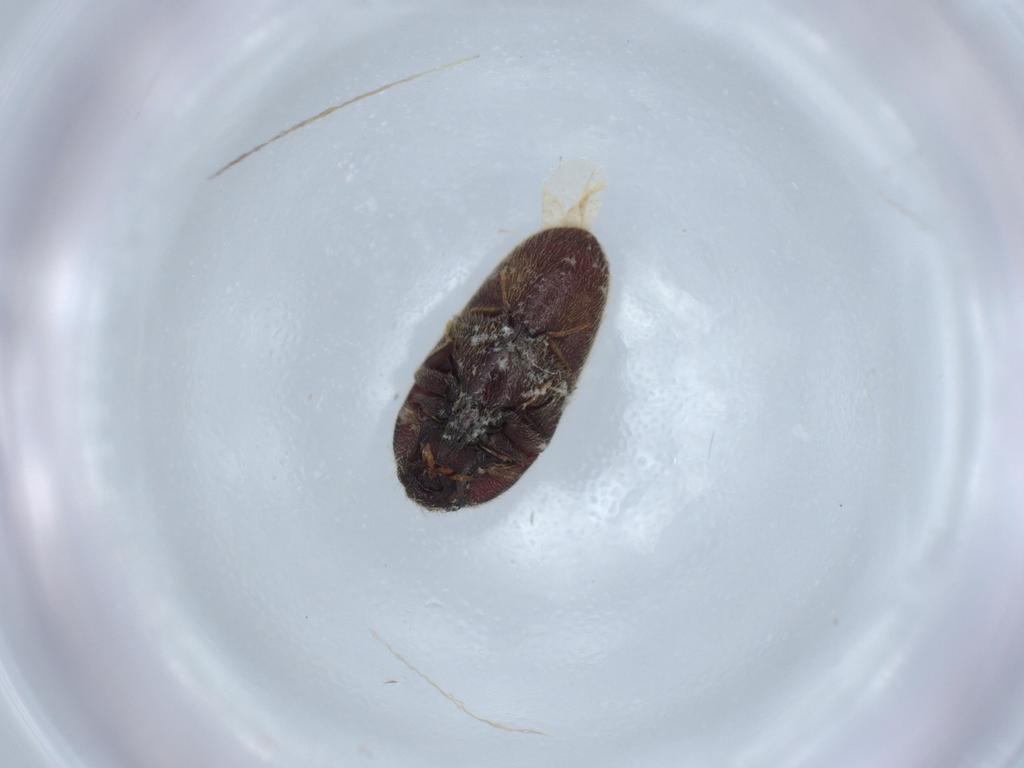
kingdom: Animalia
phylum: Arthropoda
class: Insecta
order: Coleoptera
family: Throscidae
